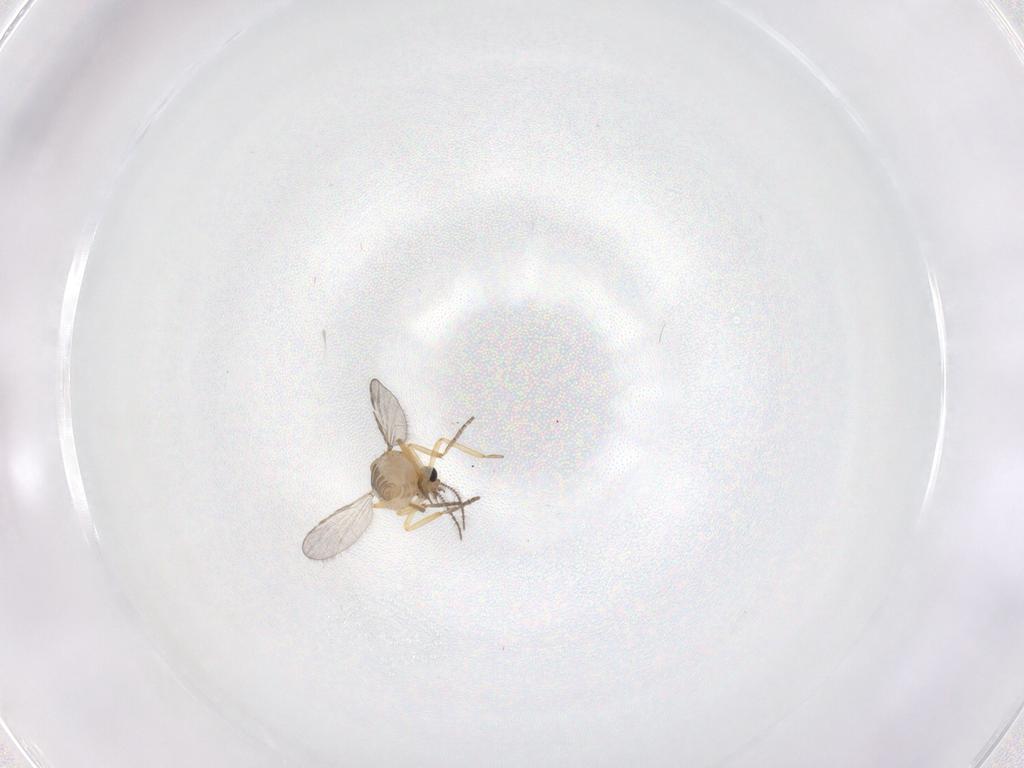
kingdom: Animalia
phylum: Arthropoda
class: Insecta
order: Diptera
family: Ceratopogonidae
